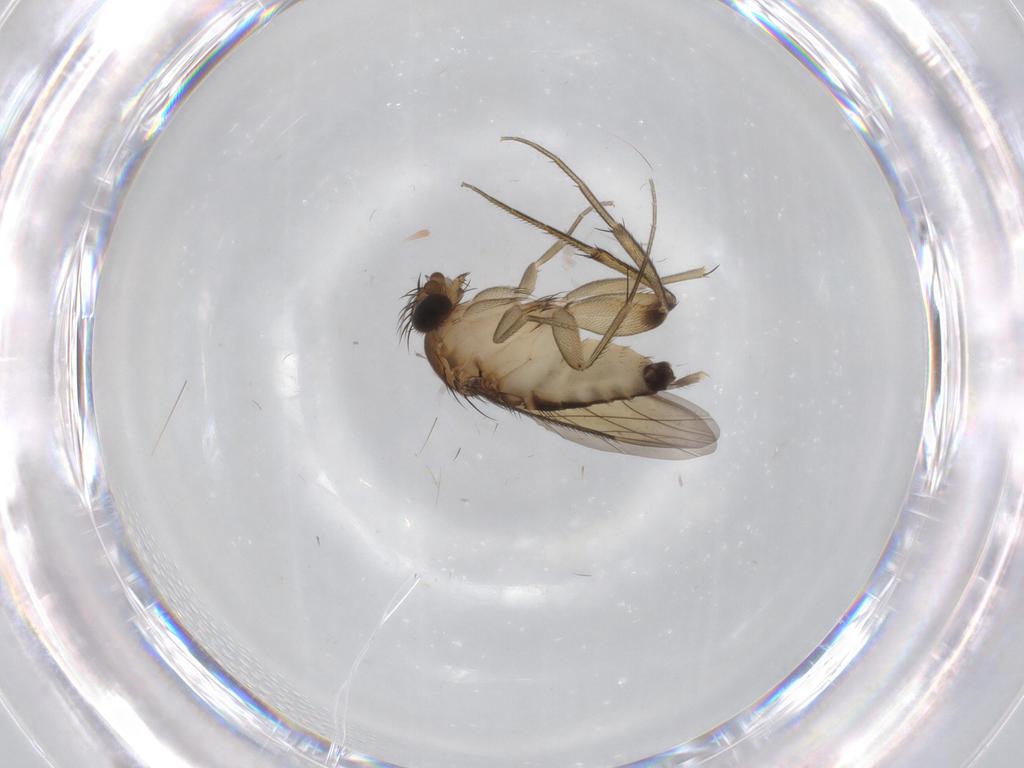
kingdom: Animalia
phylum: Arthropoda
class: Insecta
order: Diptera
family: Phoridae
